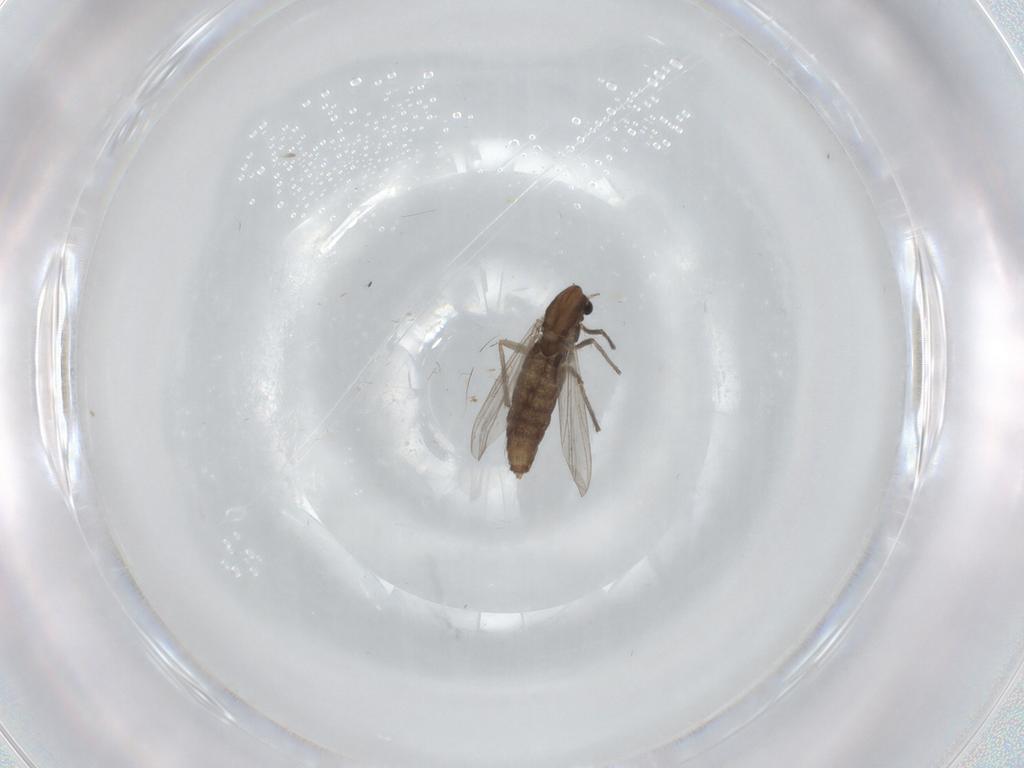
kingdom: Animalia
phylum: Arthropoda
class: Insecta
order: Diptera
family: Chironomidae
